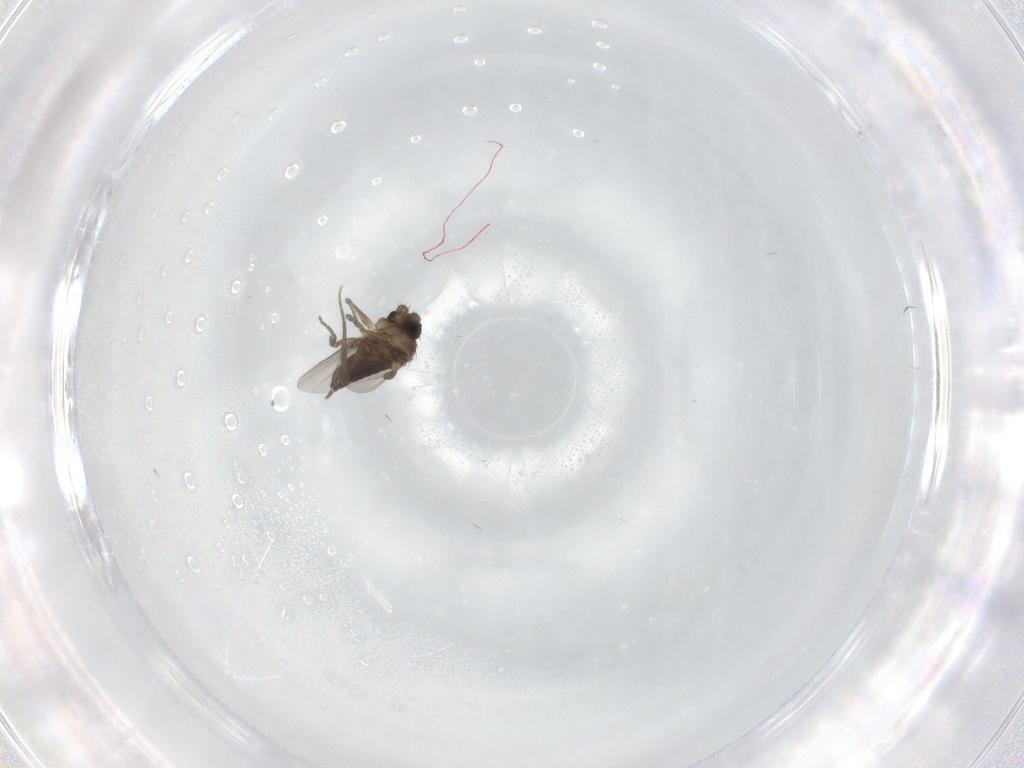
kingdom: Animalia
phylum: Arthropoda
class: Insecta
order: Diptera
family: Phoridae
